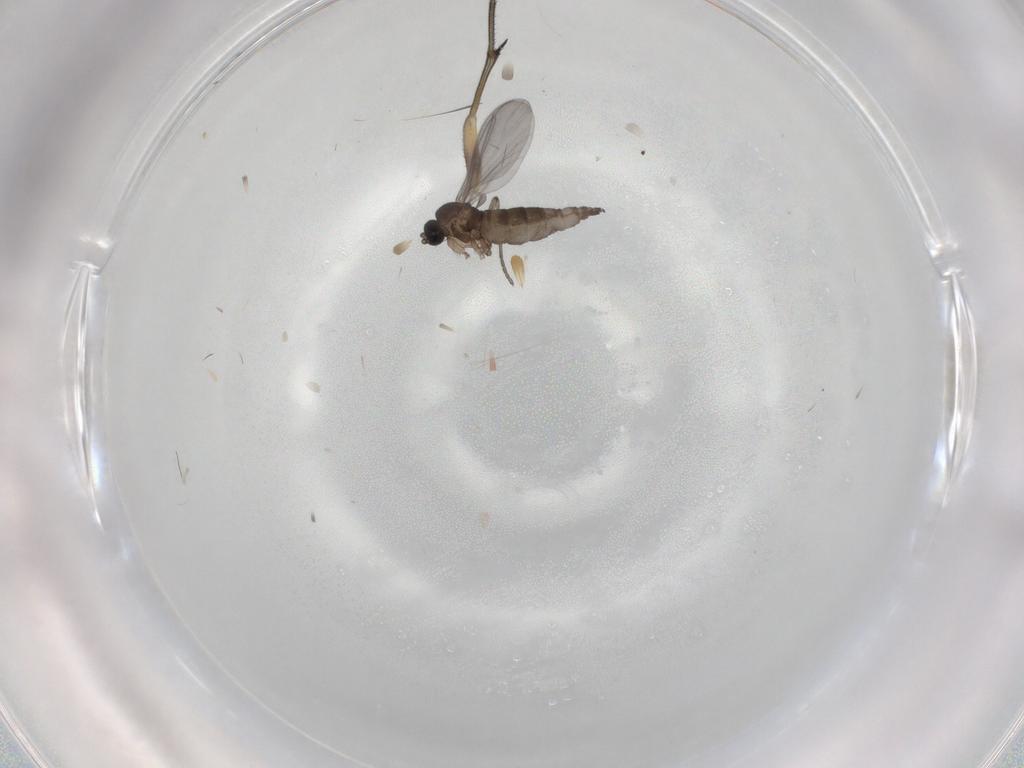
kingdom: Animalia
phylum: Arthropoda
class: Insecta
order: Diptera
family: Sciaridae
